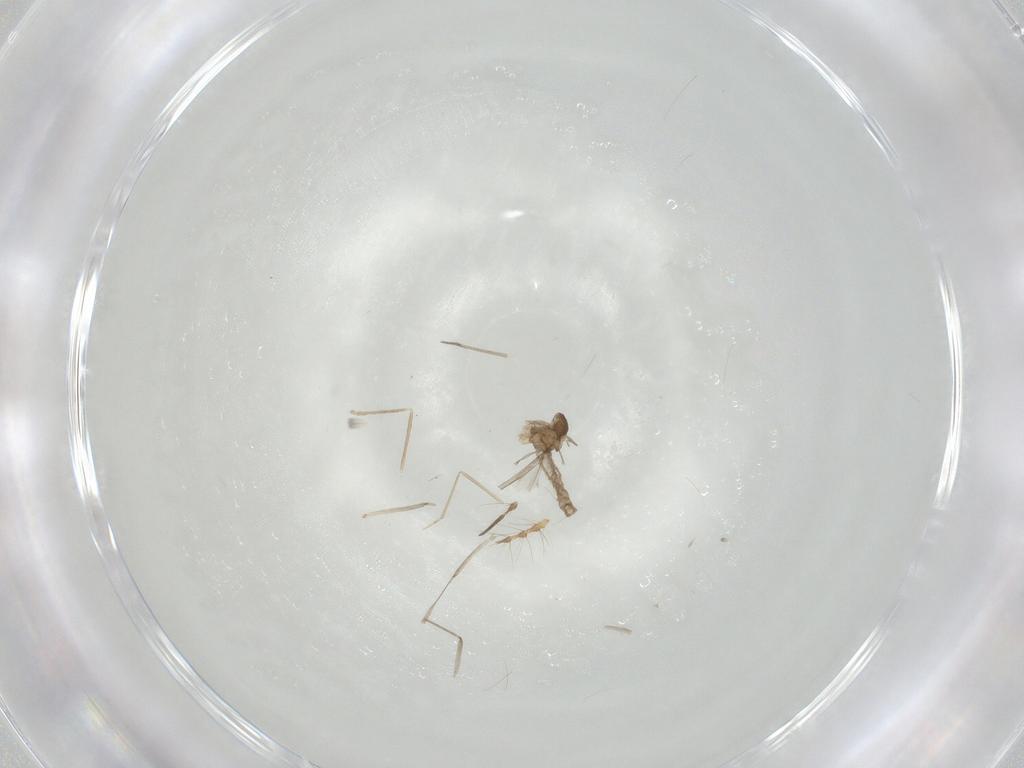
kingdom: Animalia
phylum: Arthropoda
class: Insecta
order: Diptera
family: Cecidomyiidae
